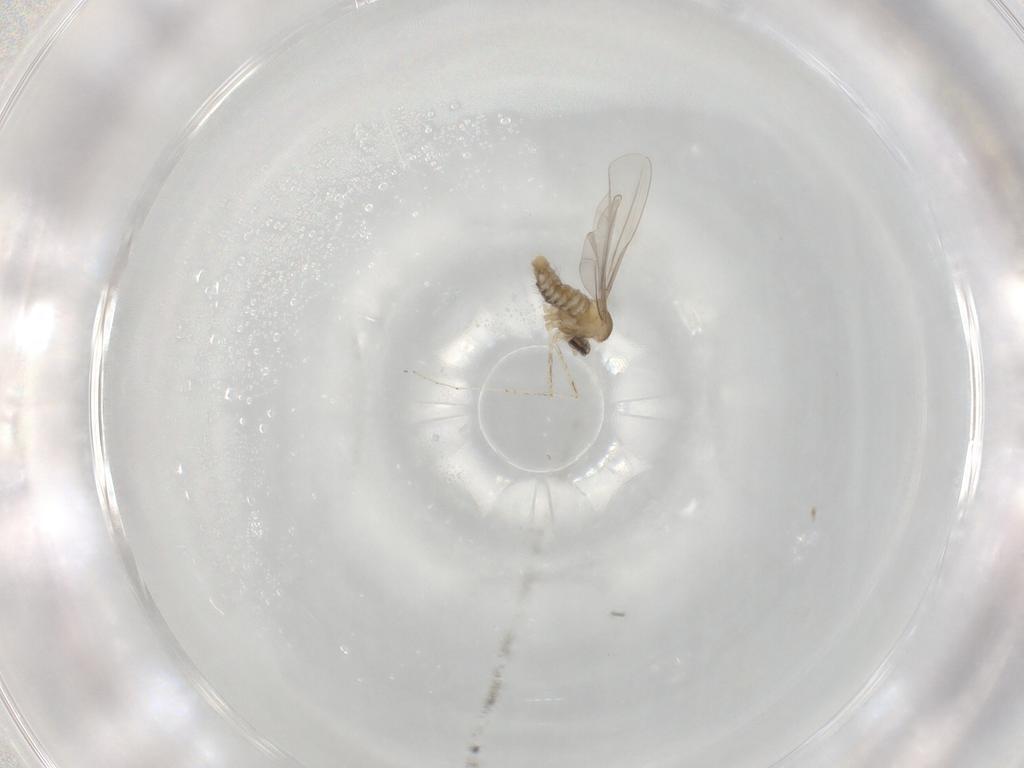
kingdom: Animalia
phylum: Arthropoda
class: Insecta
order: Diptera
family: Cecidomyiidae
